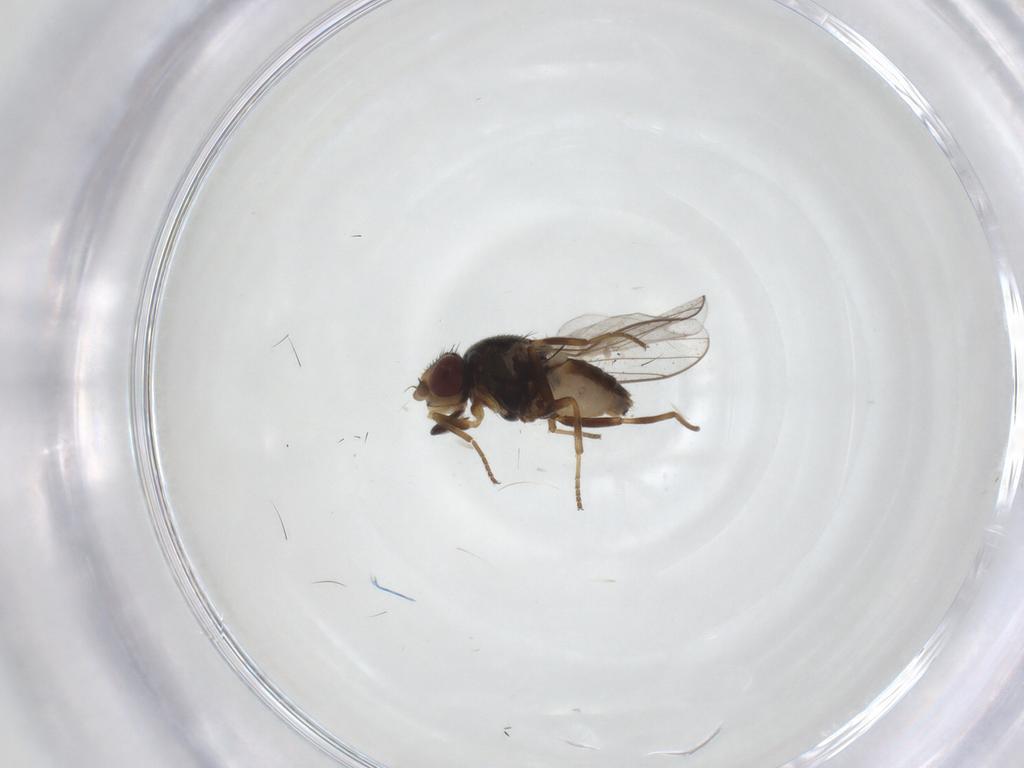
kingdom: Animalia
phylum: Arthropoda
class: Insecta
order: Diptera
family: Chloropidae
